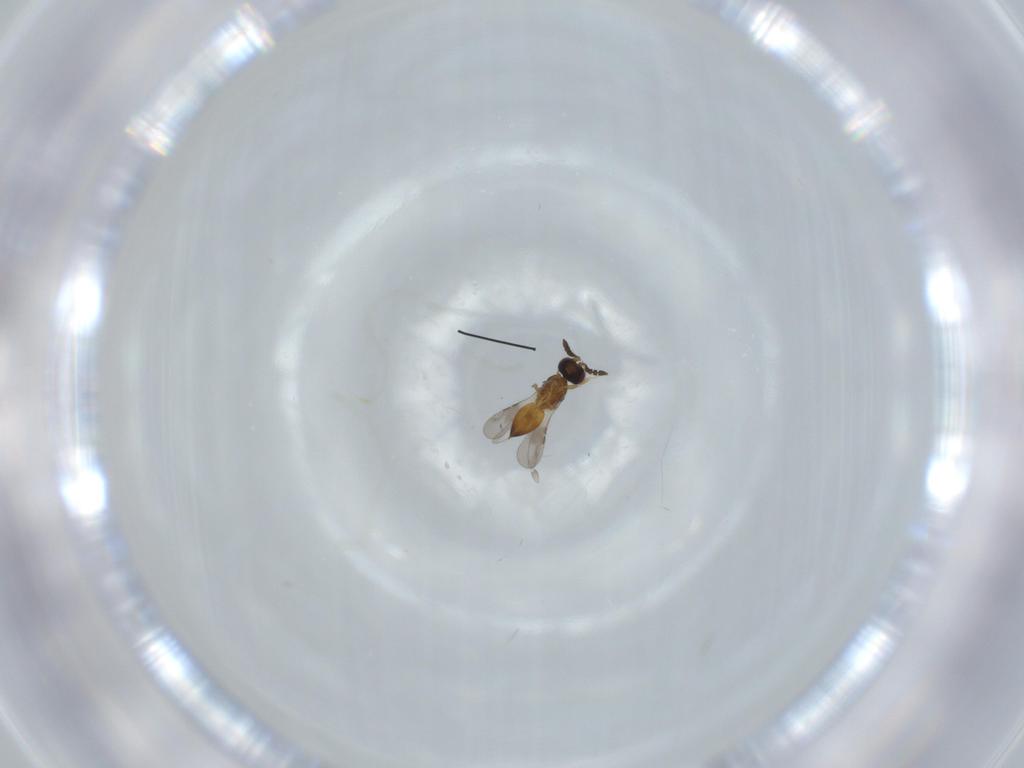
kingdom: Animalia
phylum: Arthropoda
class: Insecta
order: Hymenoptera
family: Ceraphronidae
